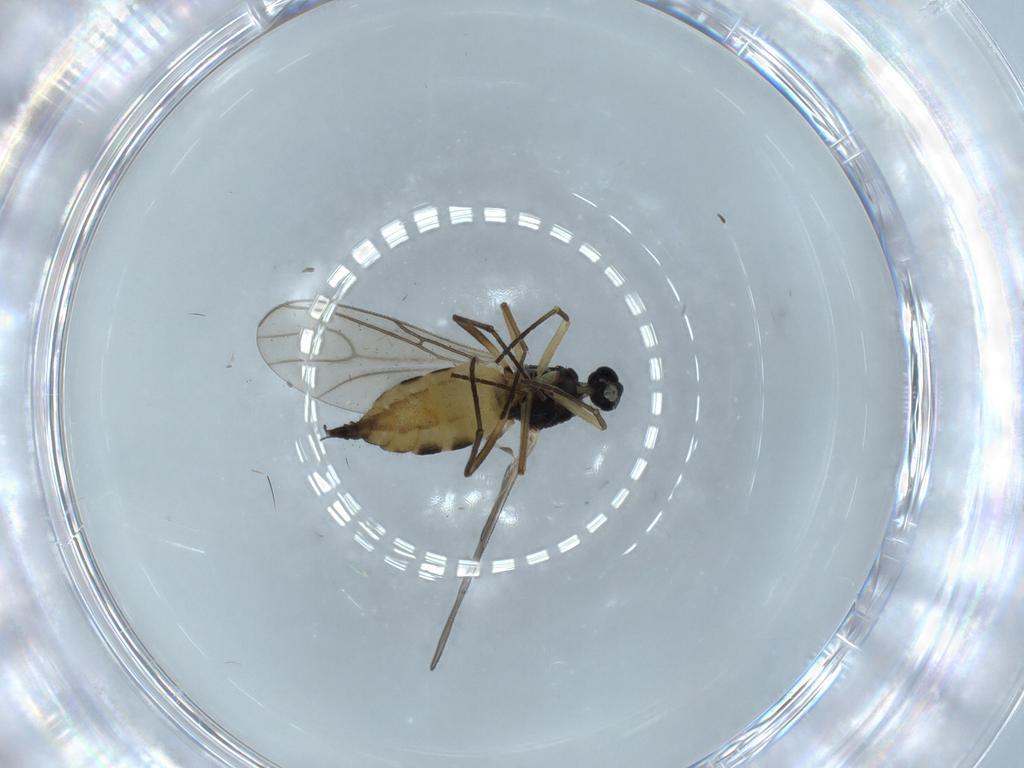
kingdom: Animalia
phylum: Arthropoda
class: Insecta
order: Diptera
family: Sciaridae
